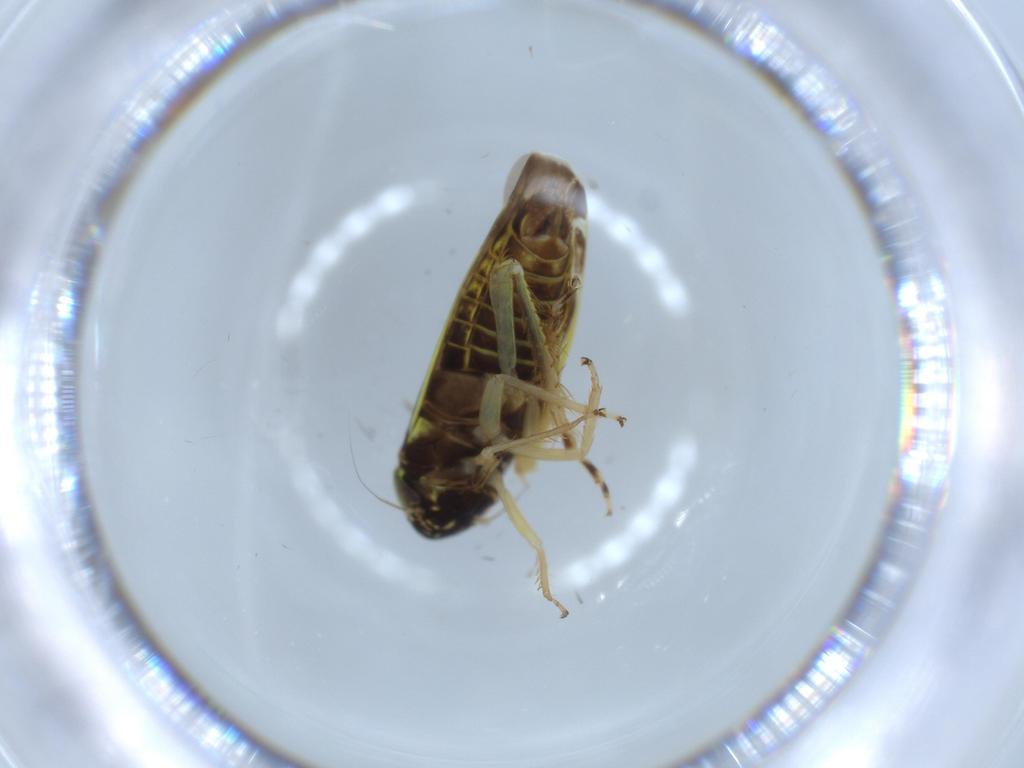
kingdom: Animalia
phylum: Arthropoda
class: Insecta
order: Hemiptera
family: Cicadellidae
